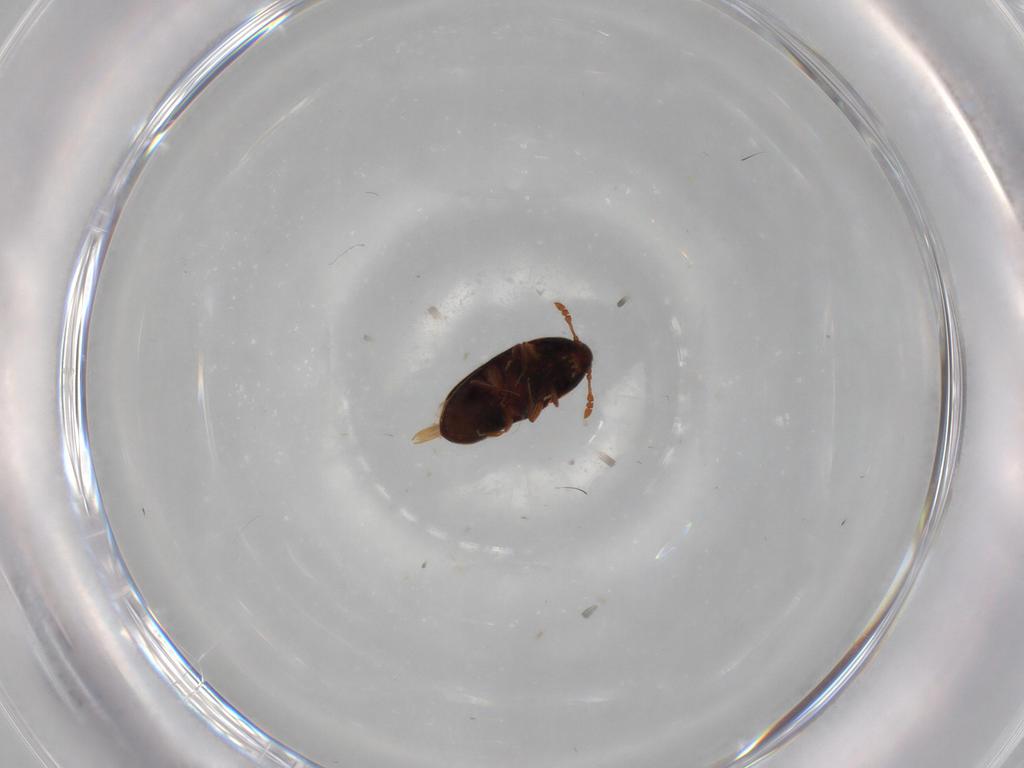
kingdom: Animalia
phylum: Arthropoda
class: Insecta
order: Coleoptera
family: Throscidae
